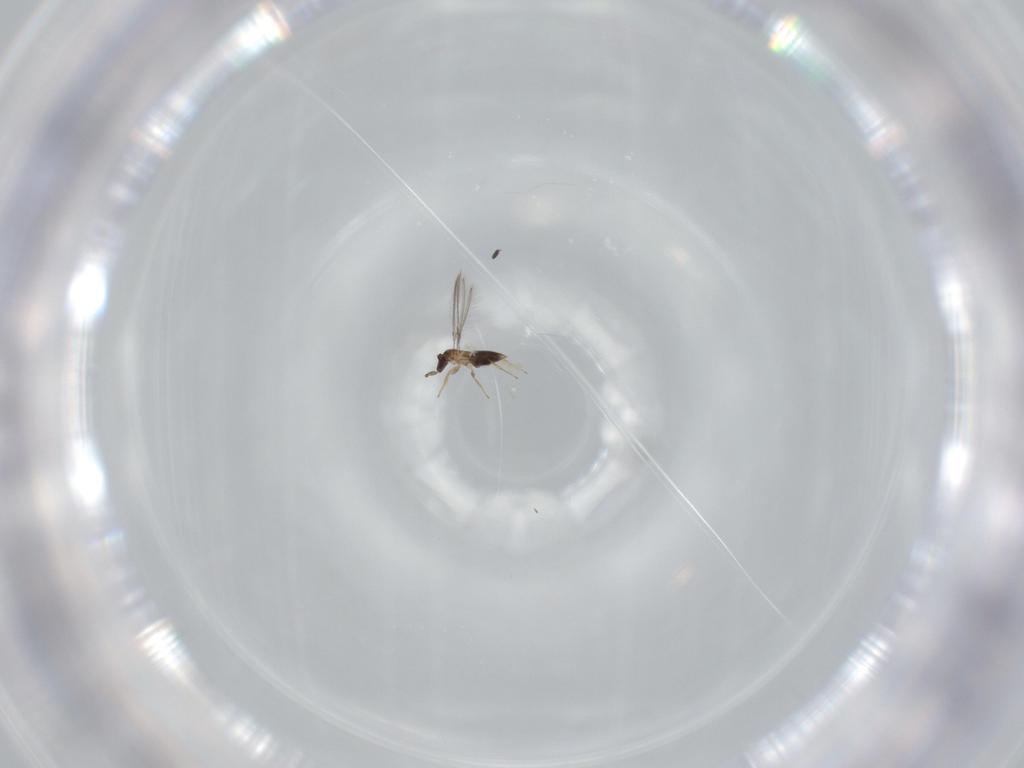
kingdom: Animalia
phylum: Arthropoda
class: Insecta
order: Hymenoptera
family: Mymaridae
